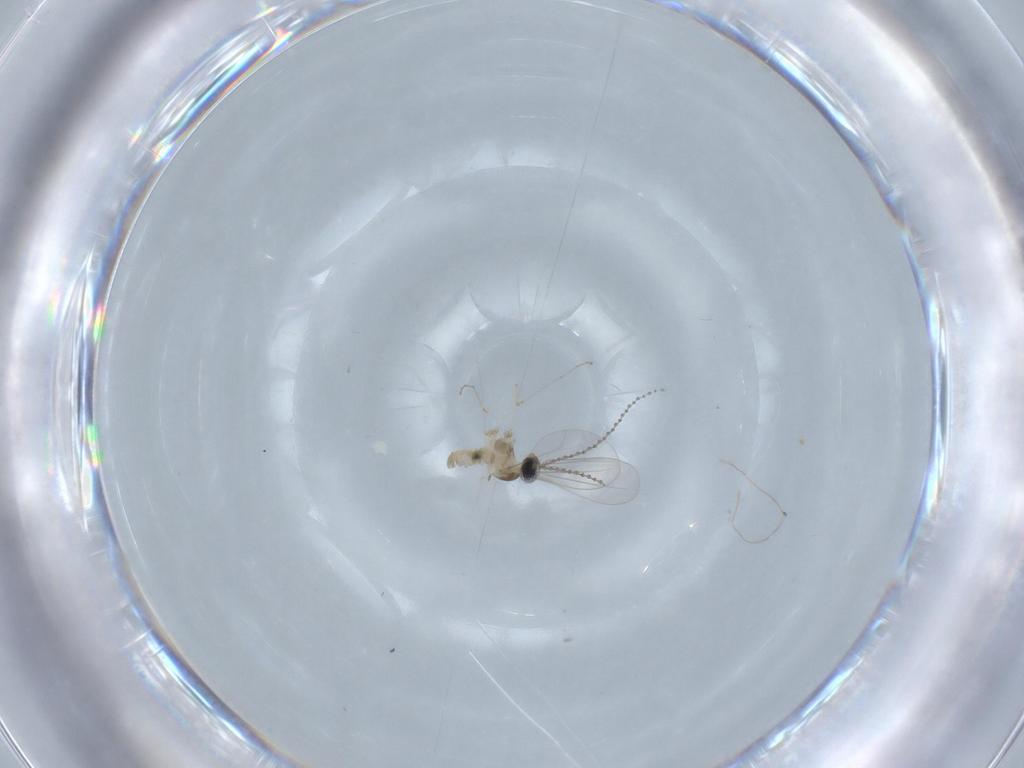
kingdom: Animalia
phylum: Arthropoda
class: Insecta
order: Diptera
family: Cecidomyiidae
